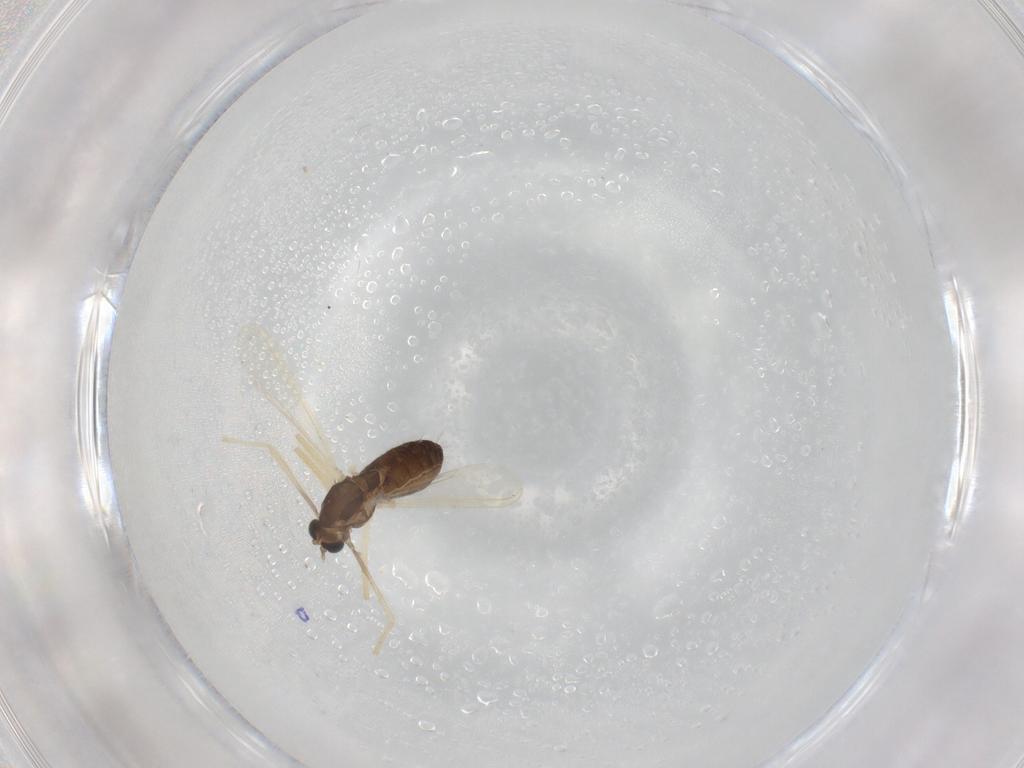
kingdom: Animalia
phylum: Arthropoda
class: Insecta
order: Diptera
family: Chironomidae
